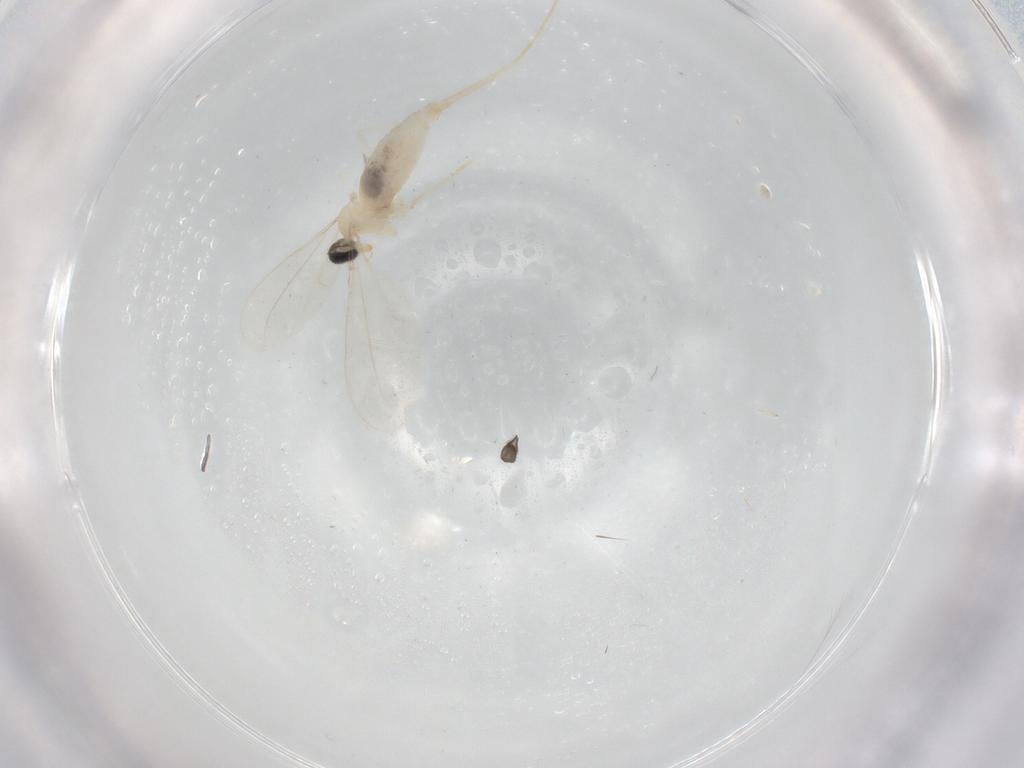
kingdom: Animalia
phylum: Arthropoda
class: Insecta
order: Diptera
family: Cecidomyiidae
